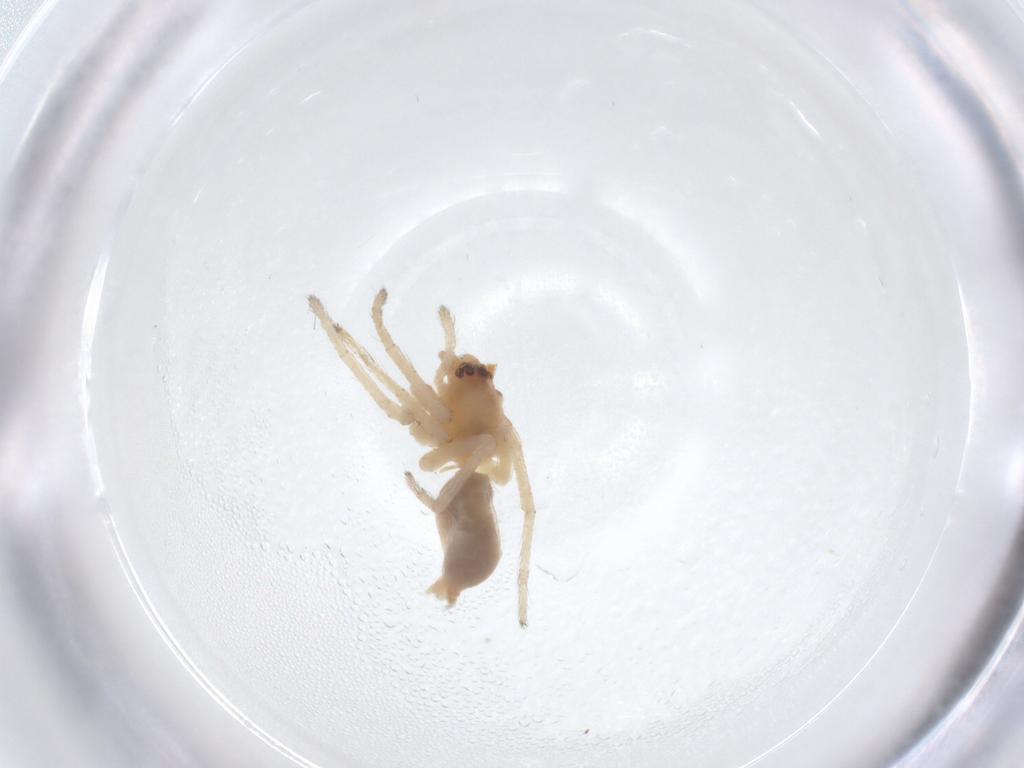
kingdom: Animalia
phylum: Arthropoda
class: Arachnida
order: Araneae
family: Anyphaenidae
